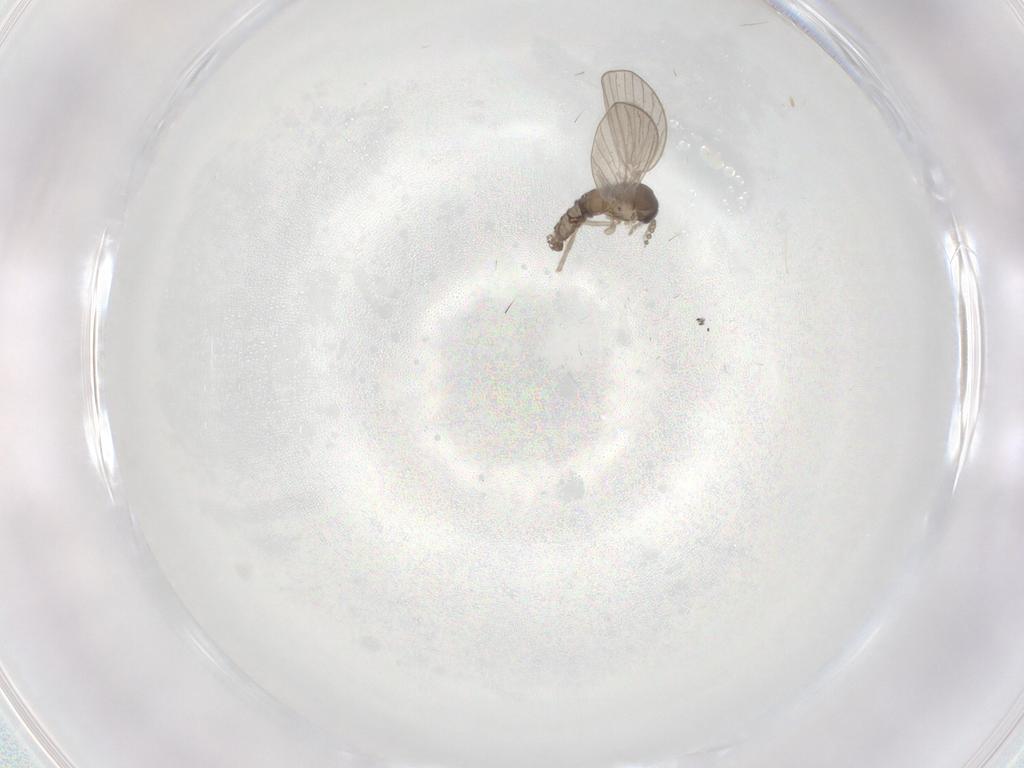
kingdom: Animalia
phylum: Arthropoda
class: Insecta
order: Diptera
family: Psychodidae
